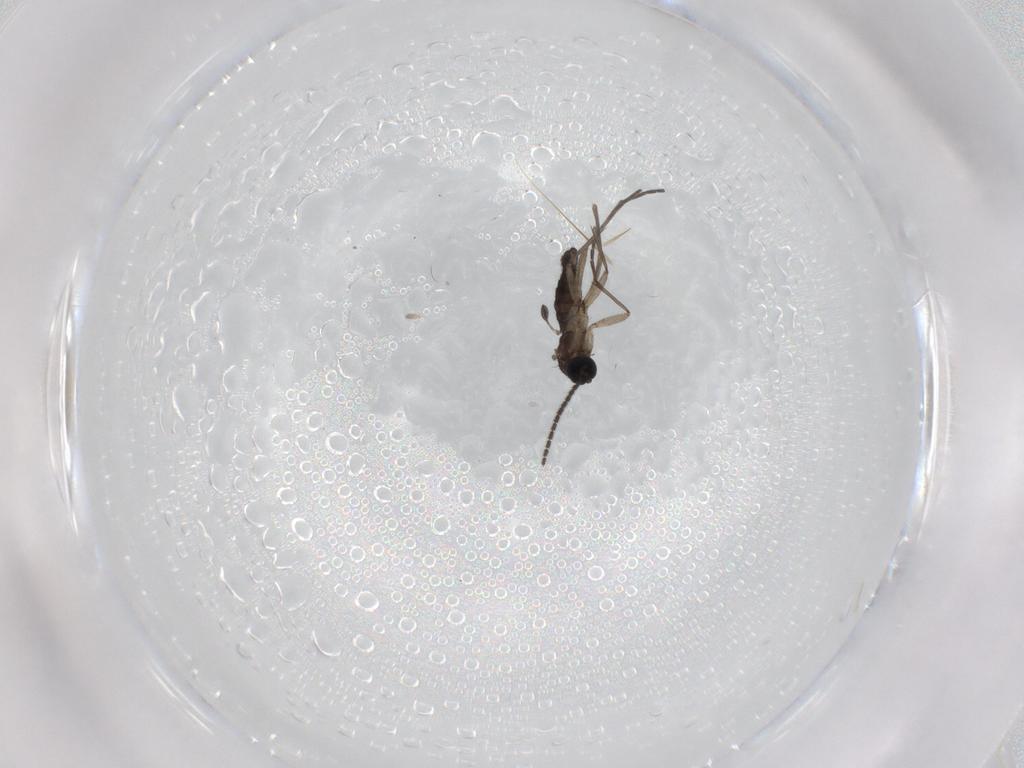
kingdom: Animalia
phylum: Arthropoda
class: Insecta
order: Diptera
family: Sciaridae
